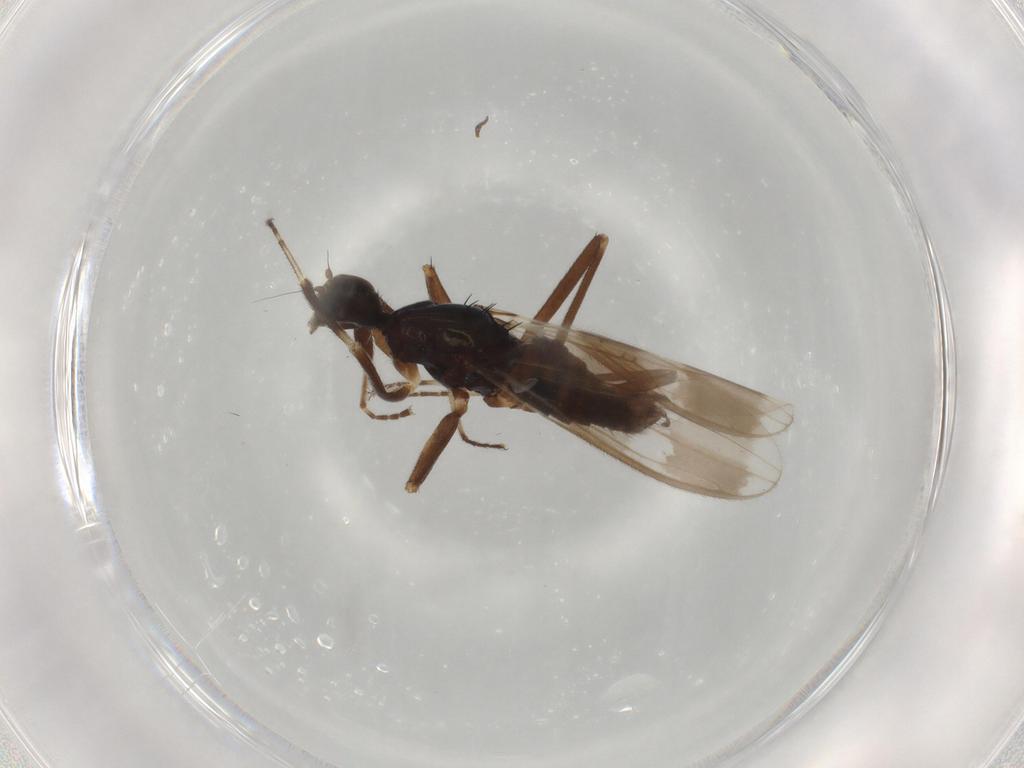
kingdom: Animalia
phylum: Arthropoda
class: Insecta
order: Diptera
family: Hybotidae
